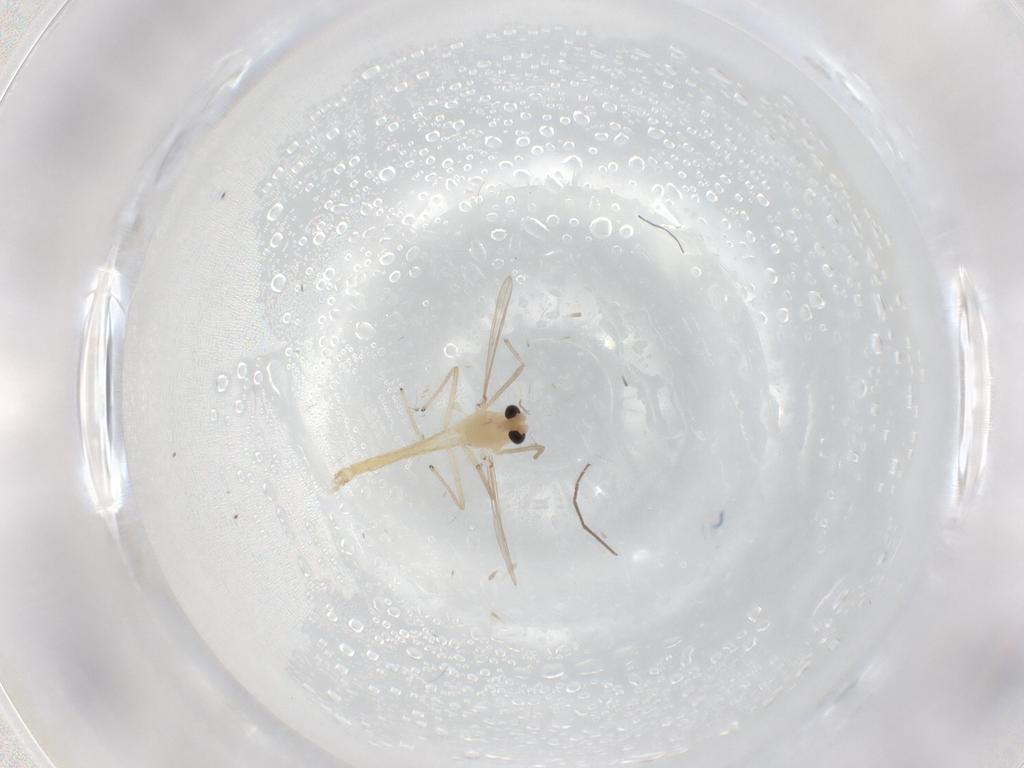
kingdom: Animalia
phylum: Arthropoda
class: Insecta
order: Diptera
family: Chironomidae
